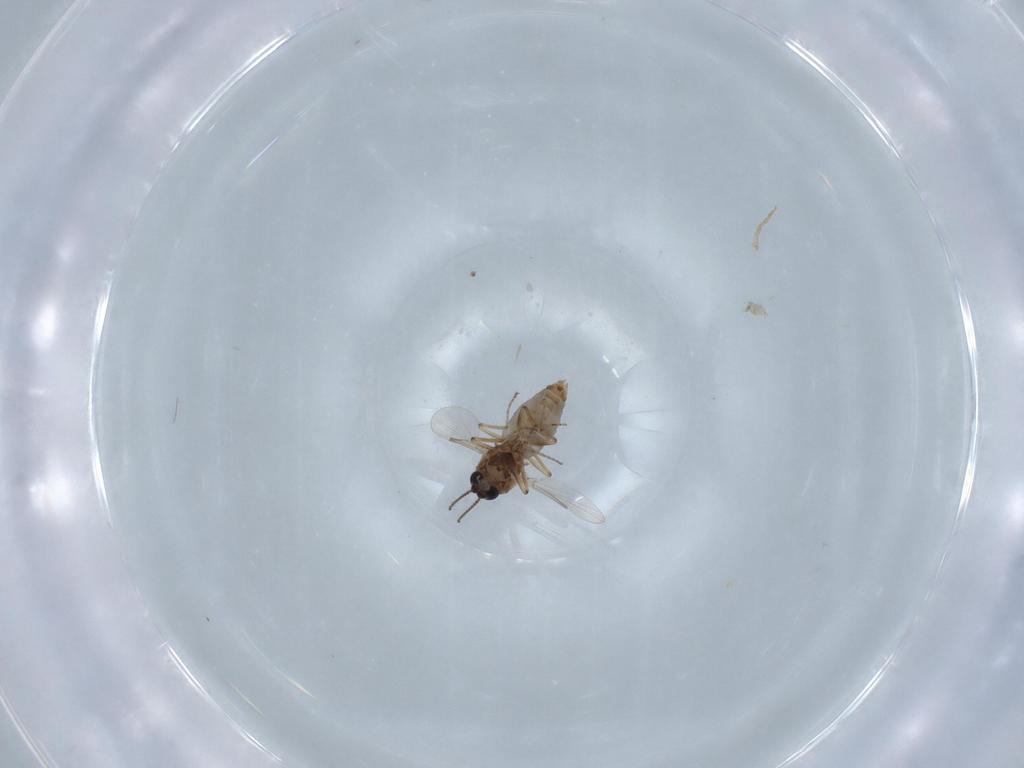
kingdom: Animalia
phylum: Arthropoda
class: Insecta
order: Diptera
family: Ceratopogonidae
